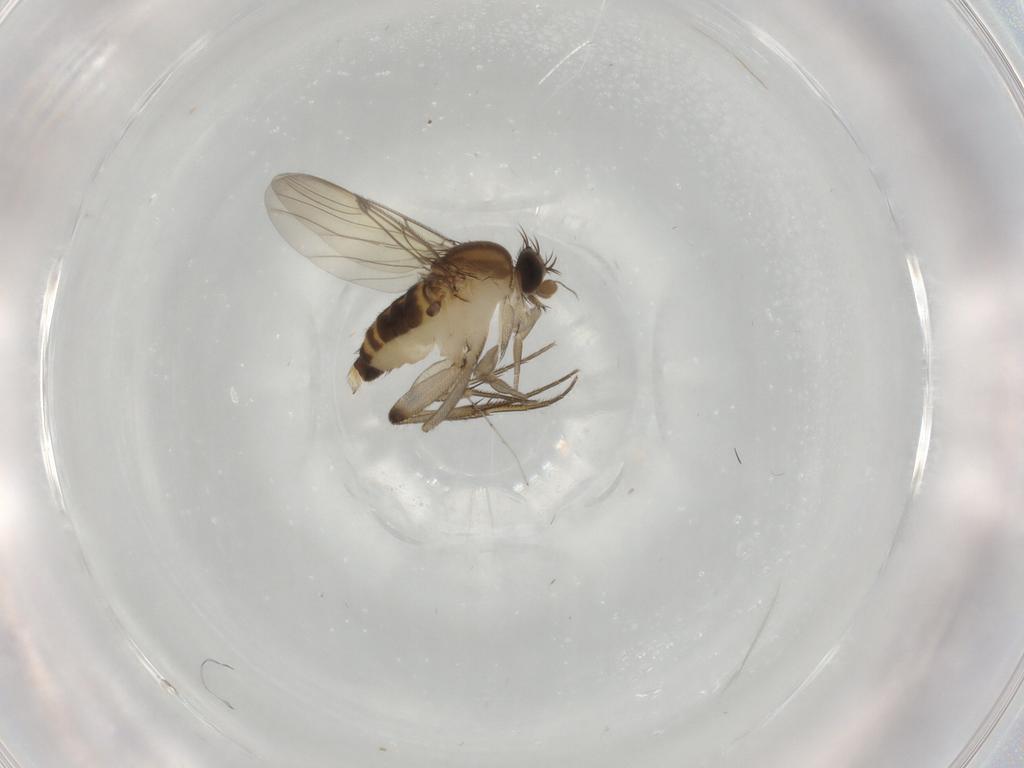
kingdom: Animalia
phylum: Arthropoda
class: Insecta
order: Diptera
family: Phoridae
